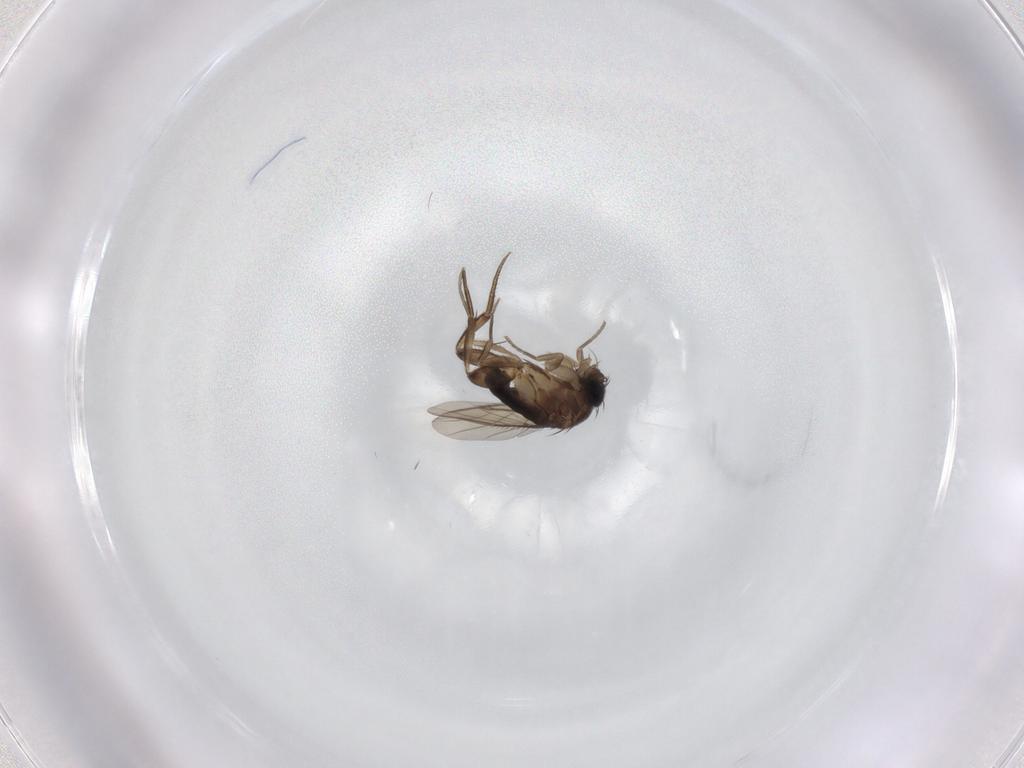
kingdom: Animalia
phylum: Arthropoda
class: Insecta
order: Diptera
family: Phoridae
